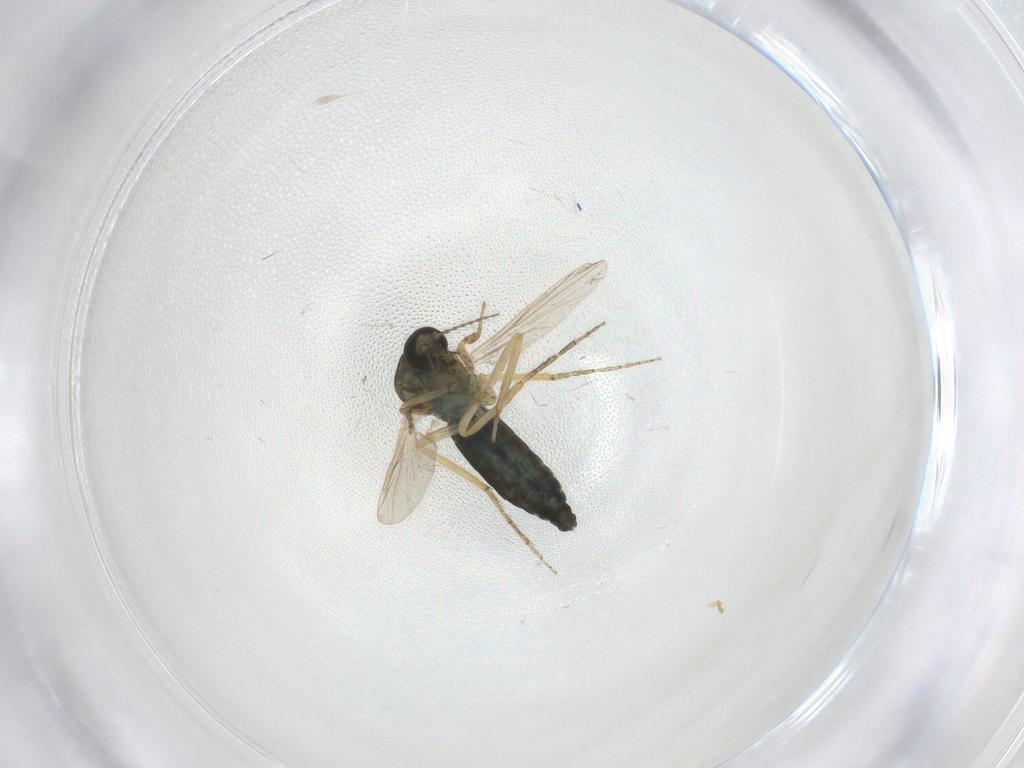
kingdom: Animalia
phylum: Arthropoda
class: Insecta
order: Diptera
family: Ceratopogonidae
